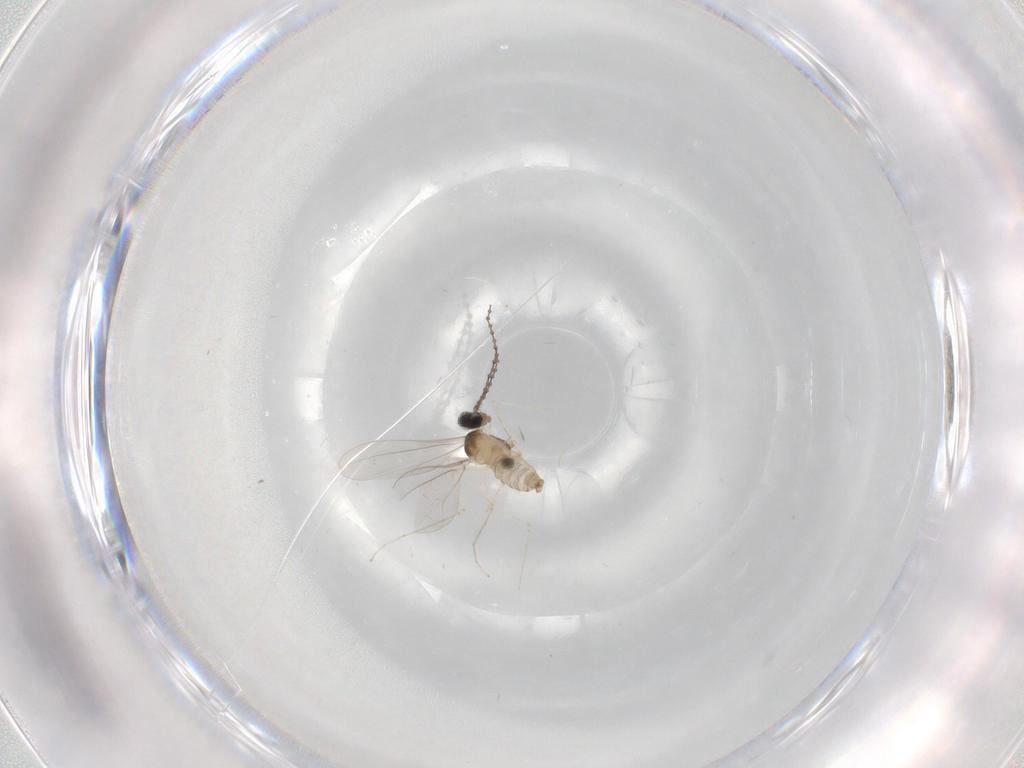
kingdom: Animalia
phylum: Arthropoda
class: Insecta
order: Diptera
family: Cecidomyiidae
